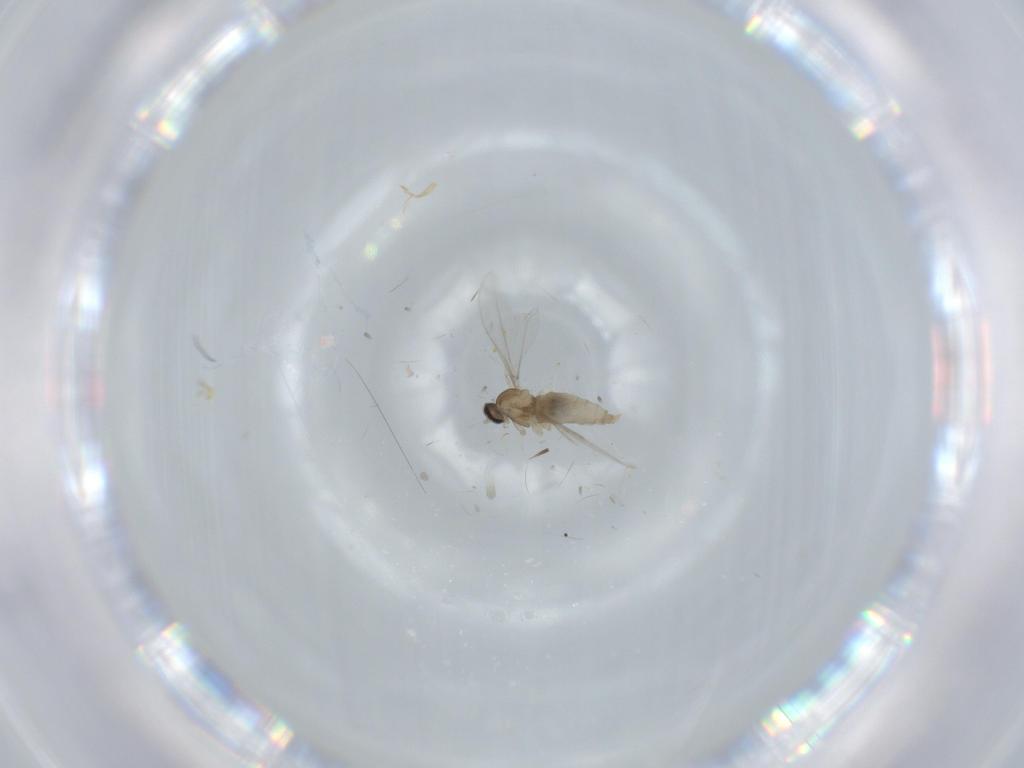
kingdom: Animalia
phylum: Arthropoda
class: Insecta
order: Diptera
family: Cecidomyiidae
